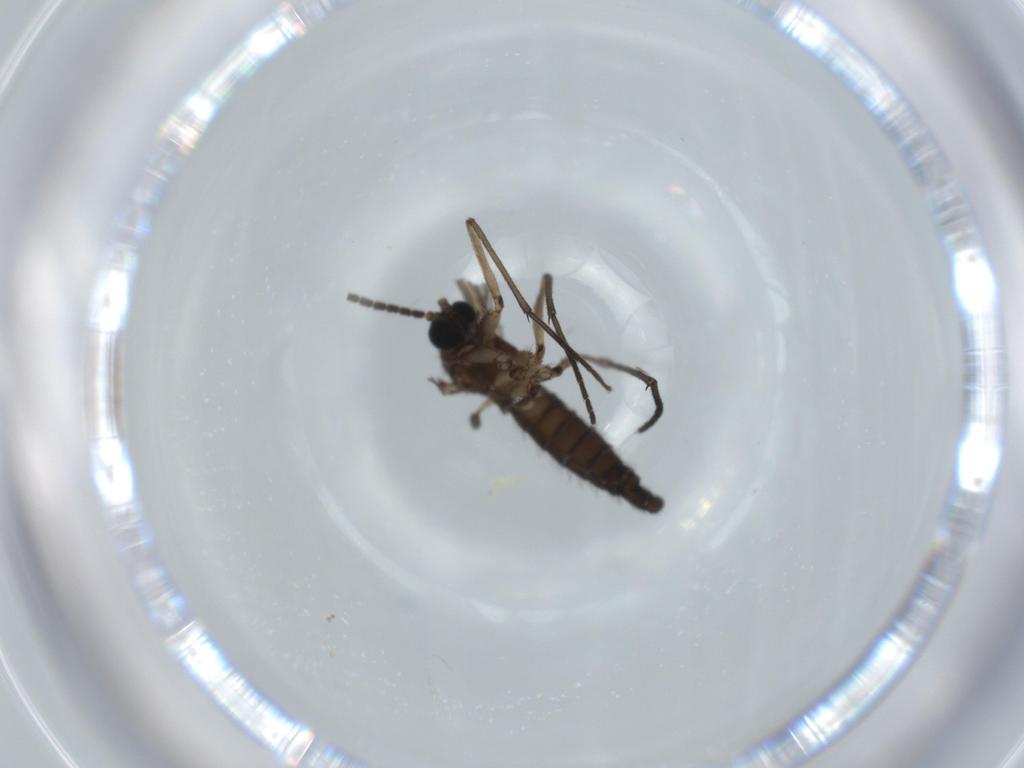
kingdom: Animalia
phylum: Arthropoda
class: Insecta
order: Diptera
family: Sciaridae
